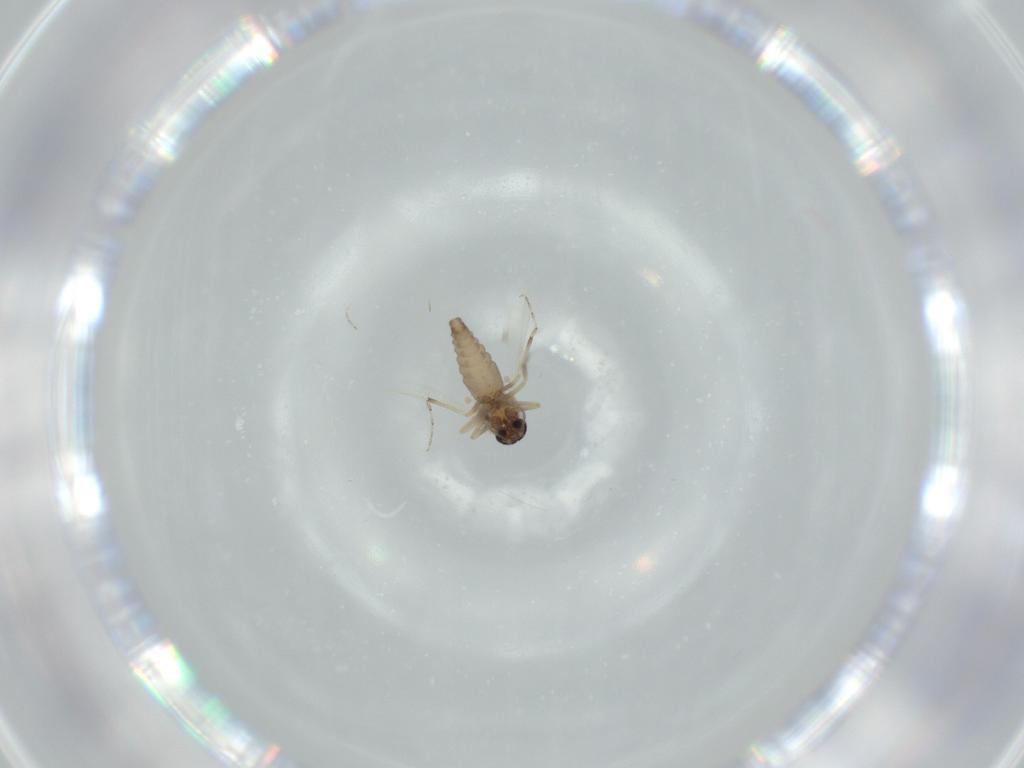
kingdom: Animalia
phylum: Arthropoda
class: Insecta
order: Diptera
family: Ceratopogonidae
